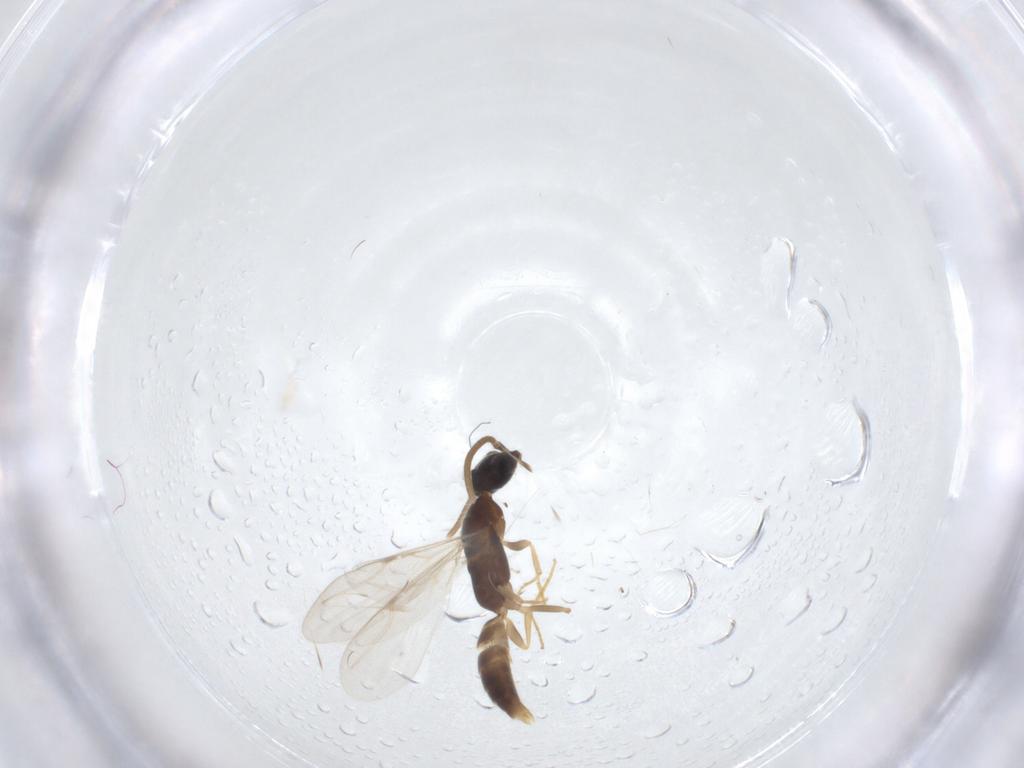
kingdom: Animalia
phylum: Arthropoda
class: Insecta
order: Hymenoptera
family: Bethylidae
